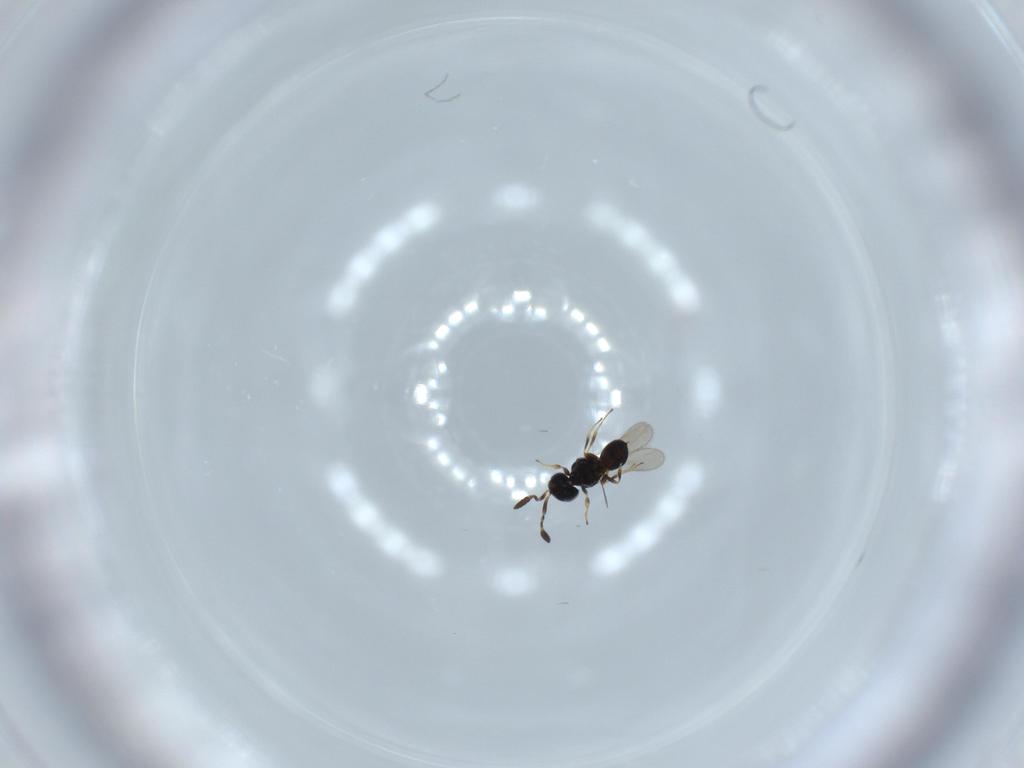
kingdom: Animalia
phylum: Arthropoda
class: Insecta
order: Hymenoptera
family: Scelionidae
